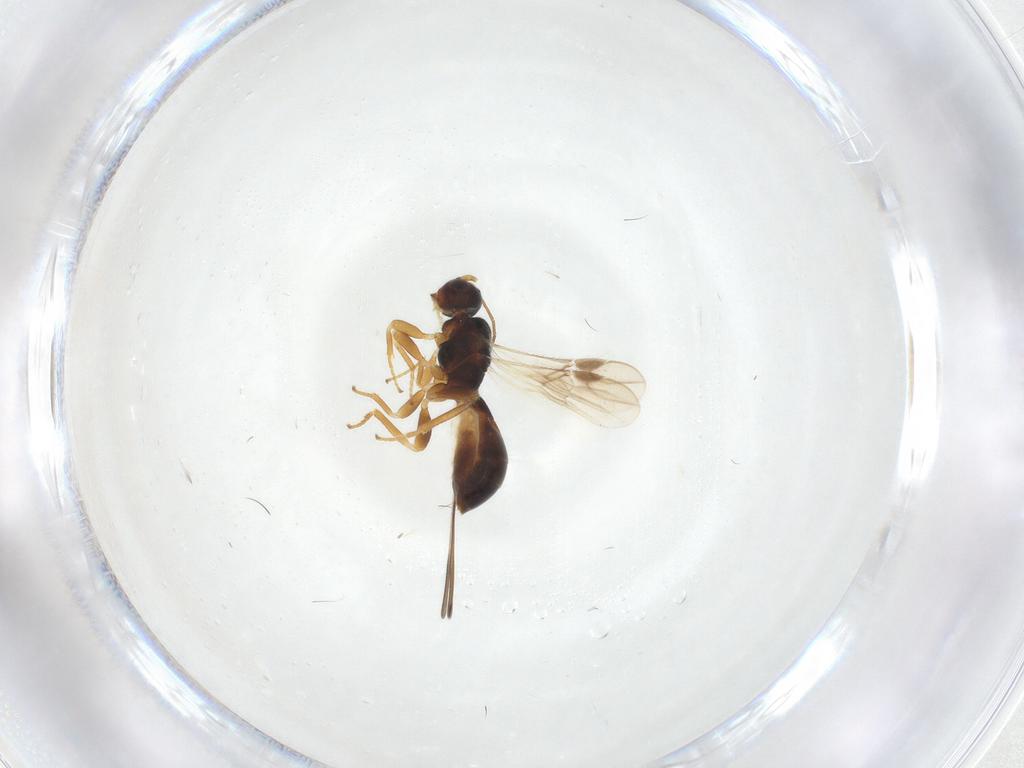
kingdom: Animalia
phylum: Arthropoda
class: Insecta
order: Hymenoptera
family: Braconidae
